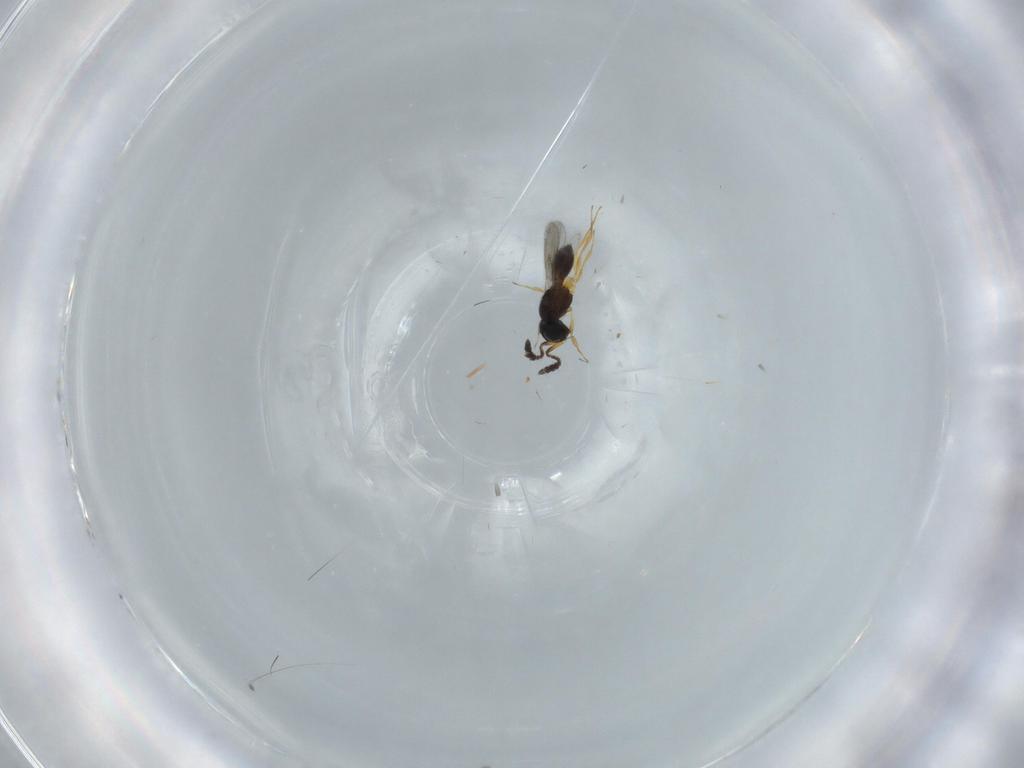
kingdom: Animalia
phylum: Arthropoda
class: Insecta
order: Hymenoptera
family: Scelionidae
